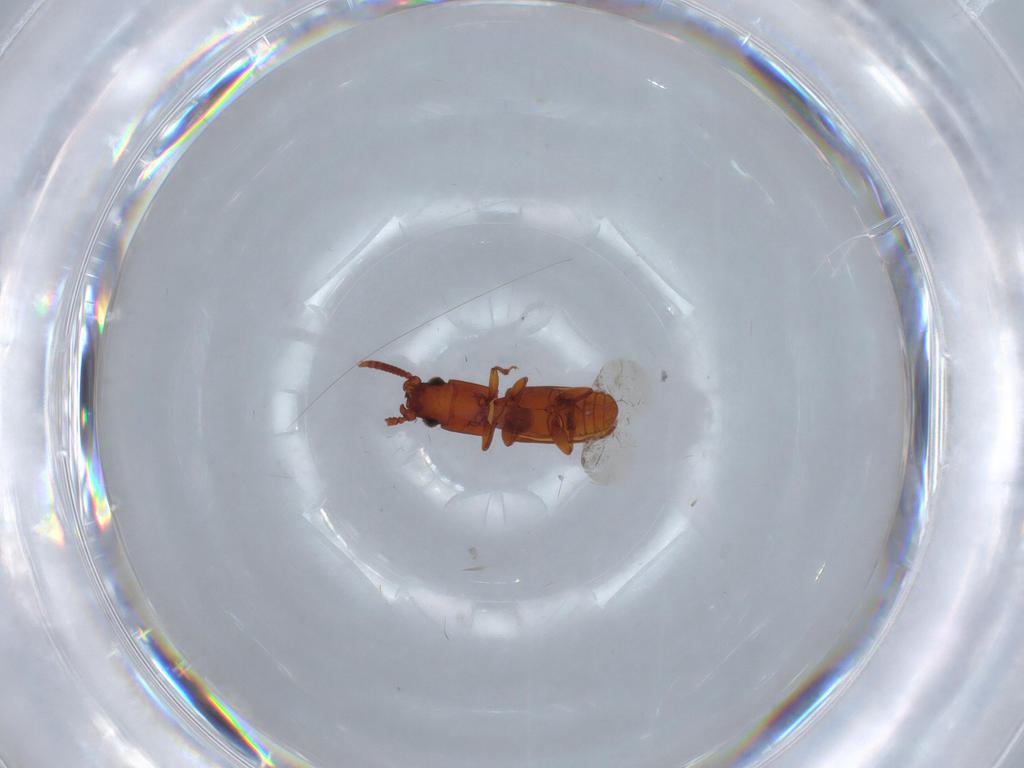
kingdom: Animalia
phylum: Arthropoda
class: Insecta
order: Coleoptera
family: Laemophloeidae
